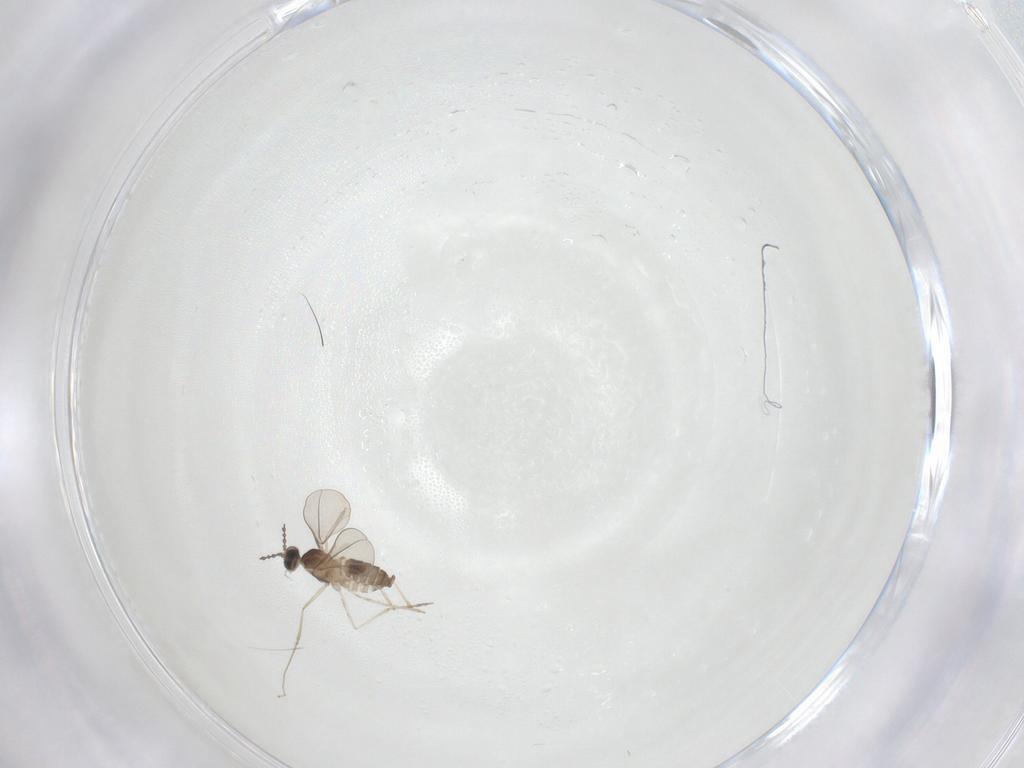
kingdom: Animalia
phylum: Arthropoda
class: Insecta
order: Diptera
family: Cecidomyiidae
